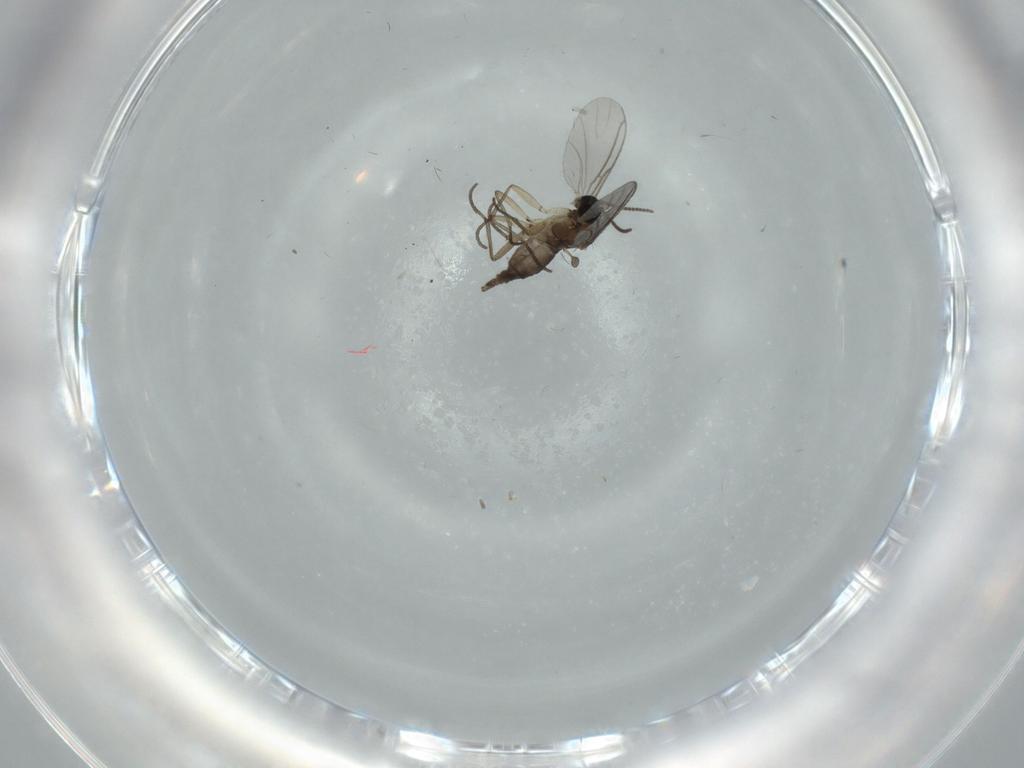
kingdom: Animalia
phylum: Arthropoda
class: Insecta
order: Diptera
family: Sciaridae
